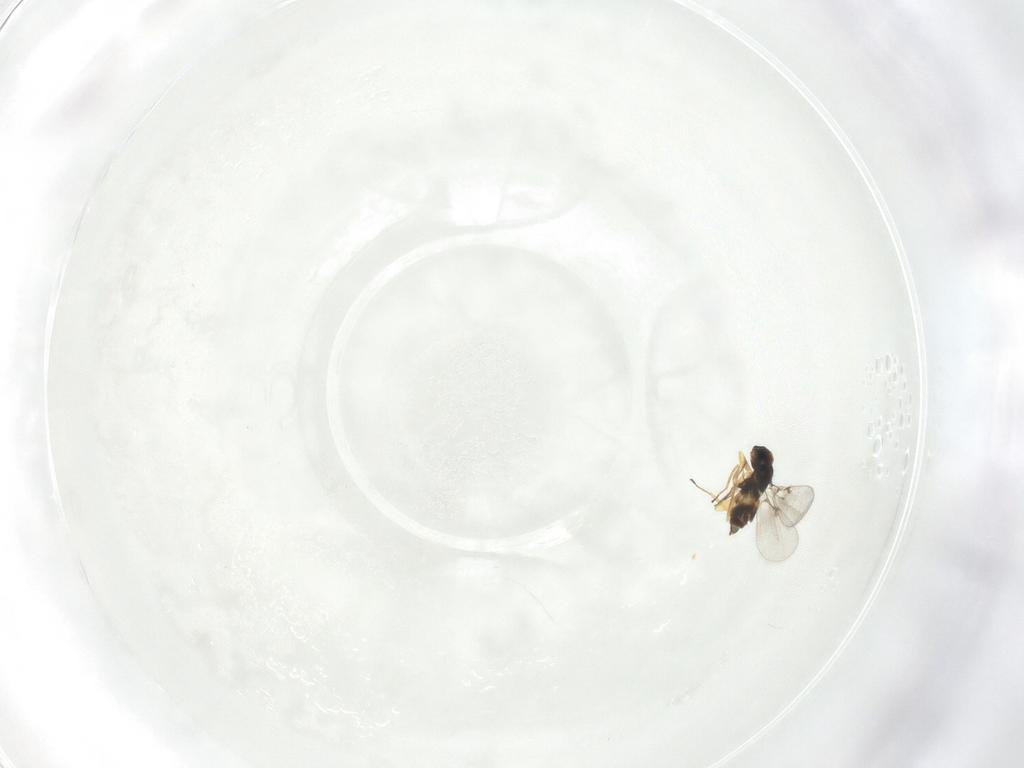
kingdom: Animalia
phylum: Arthropoda
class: Insecta
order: Hymenoptera
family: Eulophidae
